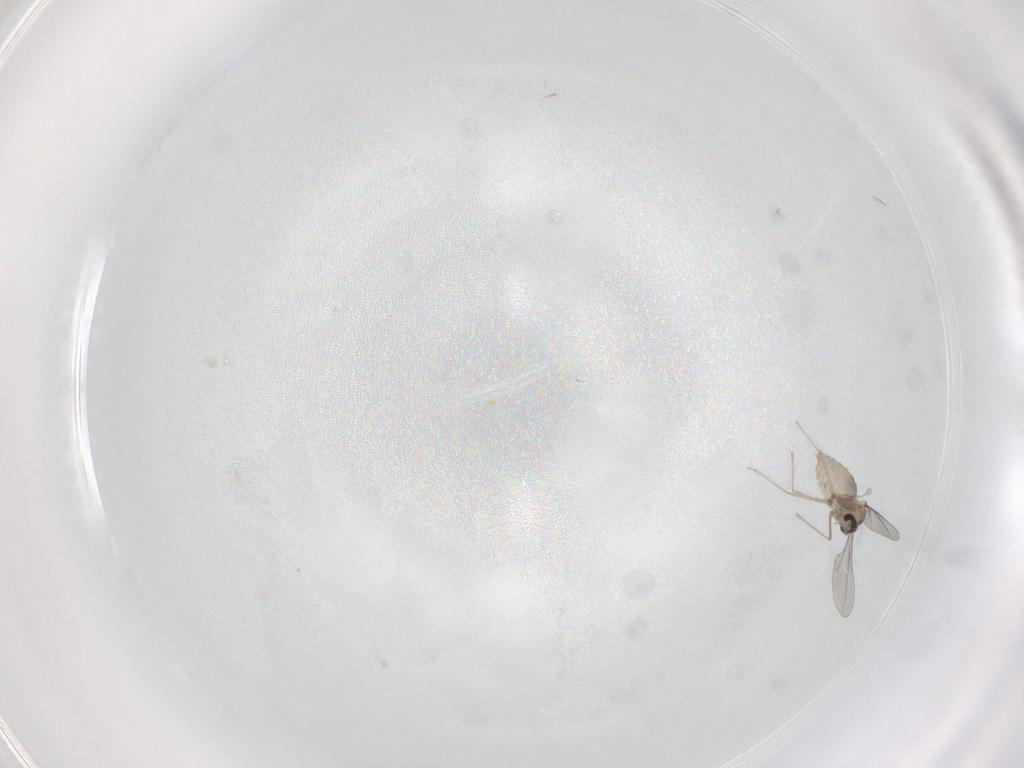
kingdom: Animalia
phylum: Arthropoda
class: Insecta
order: Diptera
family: Cecidomyiidae
